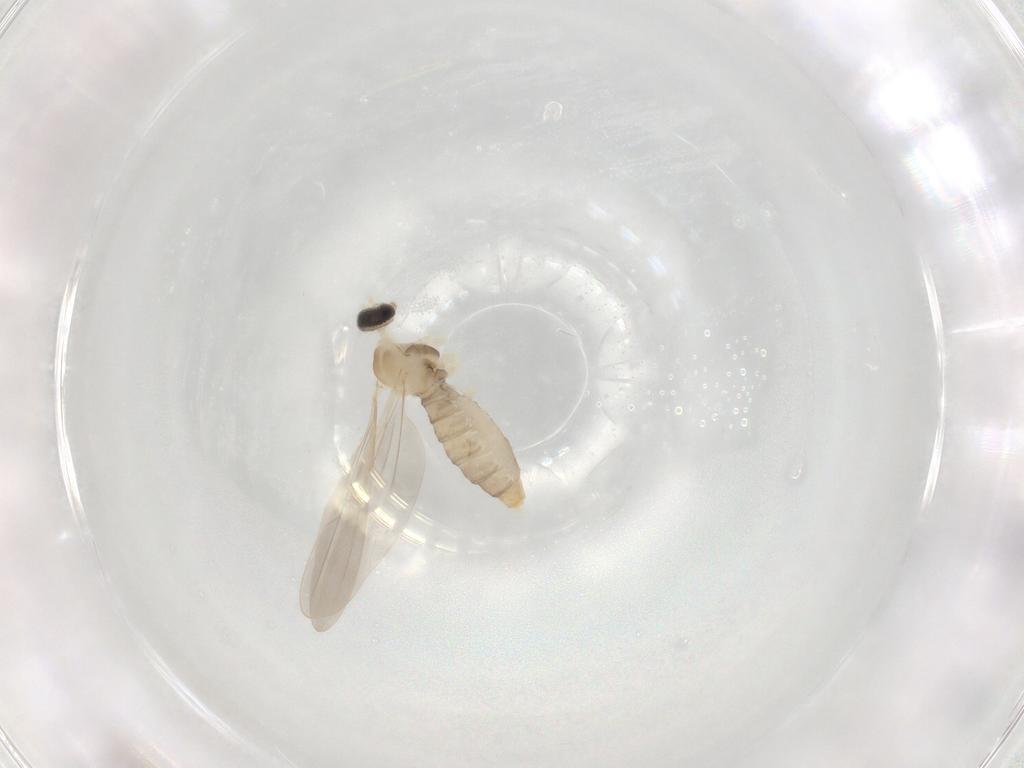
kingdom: Animalia
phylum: Arthropoda
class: Insecta
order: Diptera
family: Cecidomyiidae
